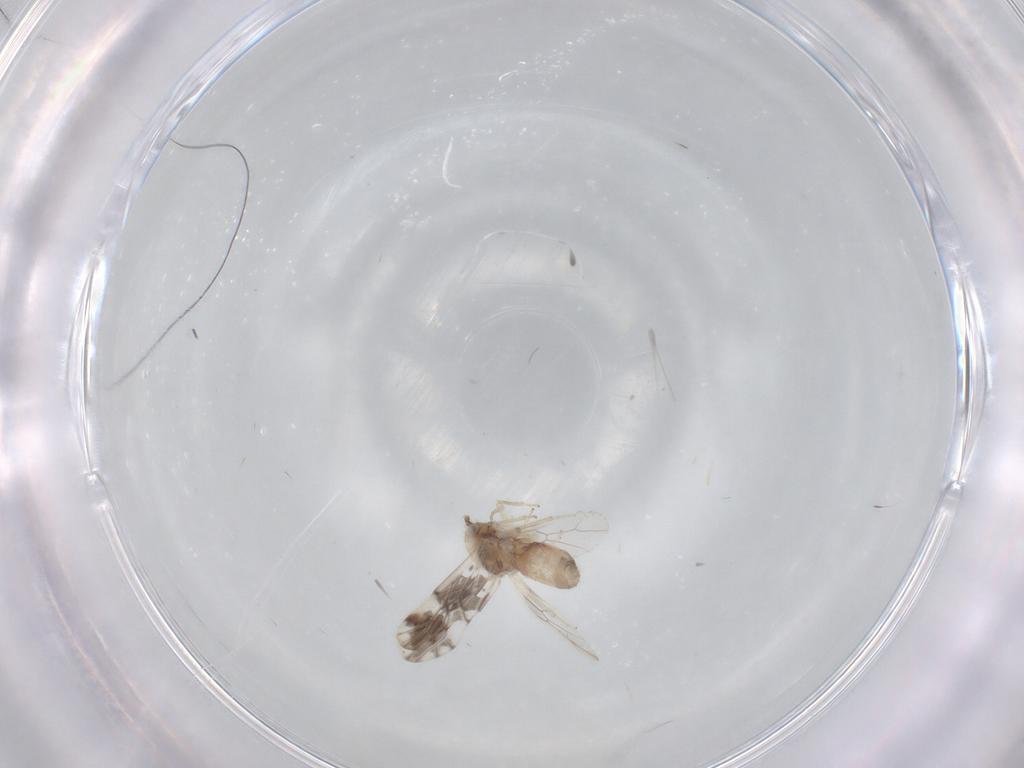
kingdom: Animalia
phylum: Arthropoda
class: Insecta
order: Psocodea
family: Ectopsocidae
